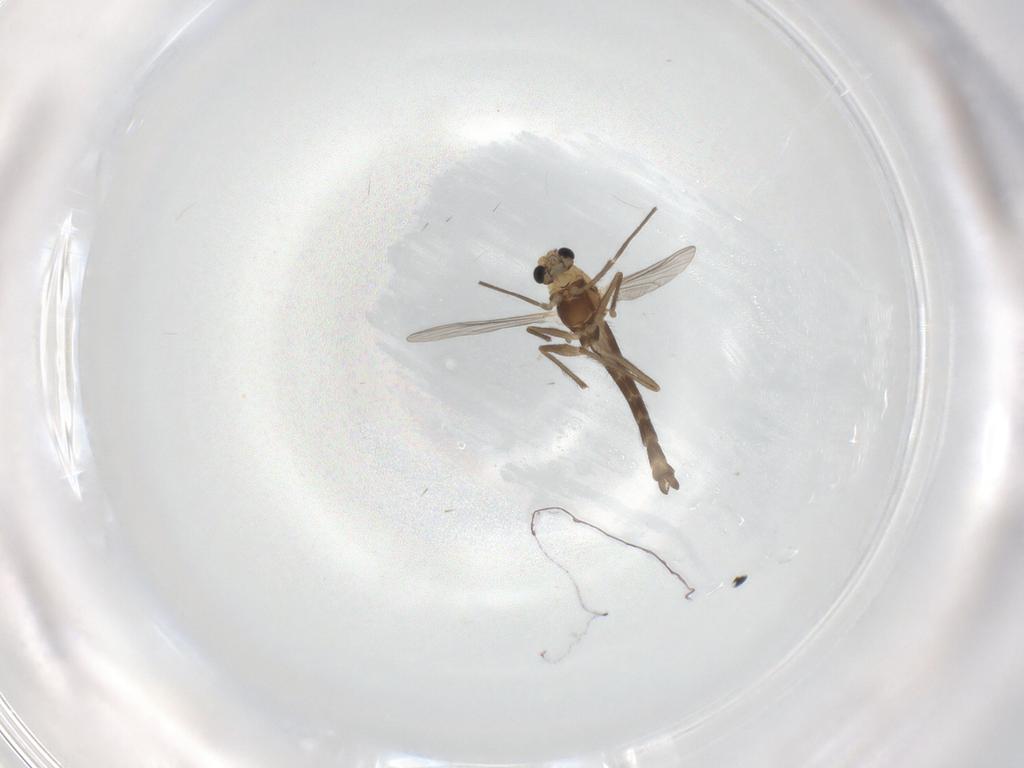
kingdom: Animalia
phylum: Arthropoda
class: Insecta
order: Diptera
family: Chironomidae
